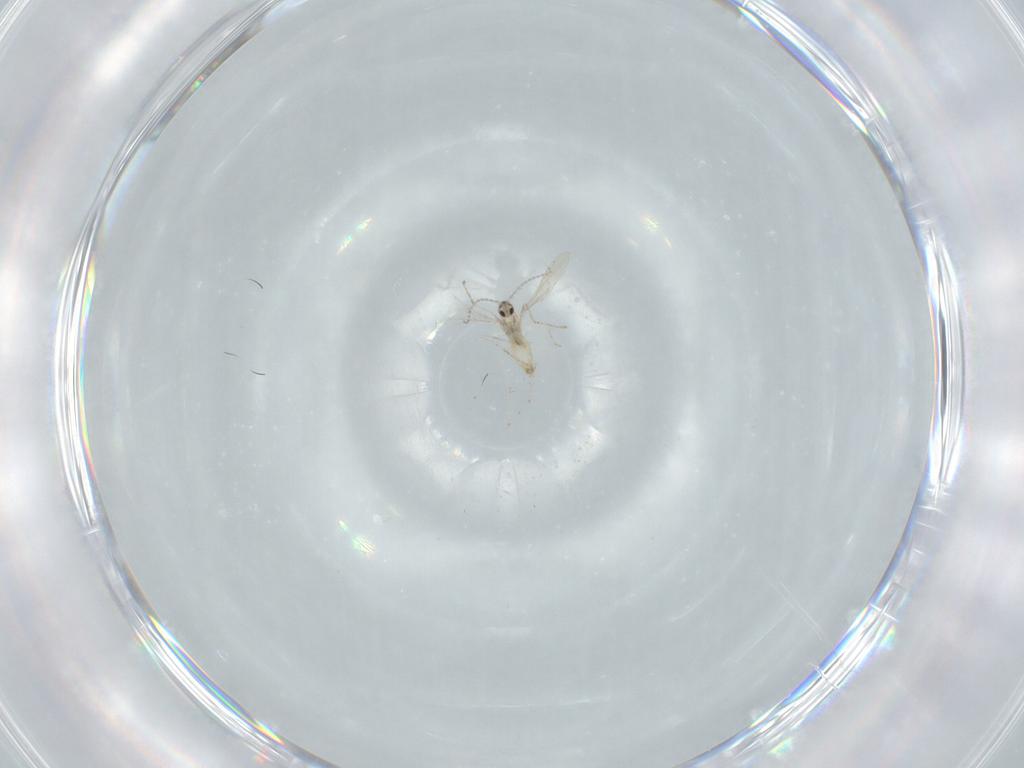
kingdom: Animalia
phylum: Arthropoda
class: Insecta
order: Diptera
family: Cecidomyiidae
